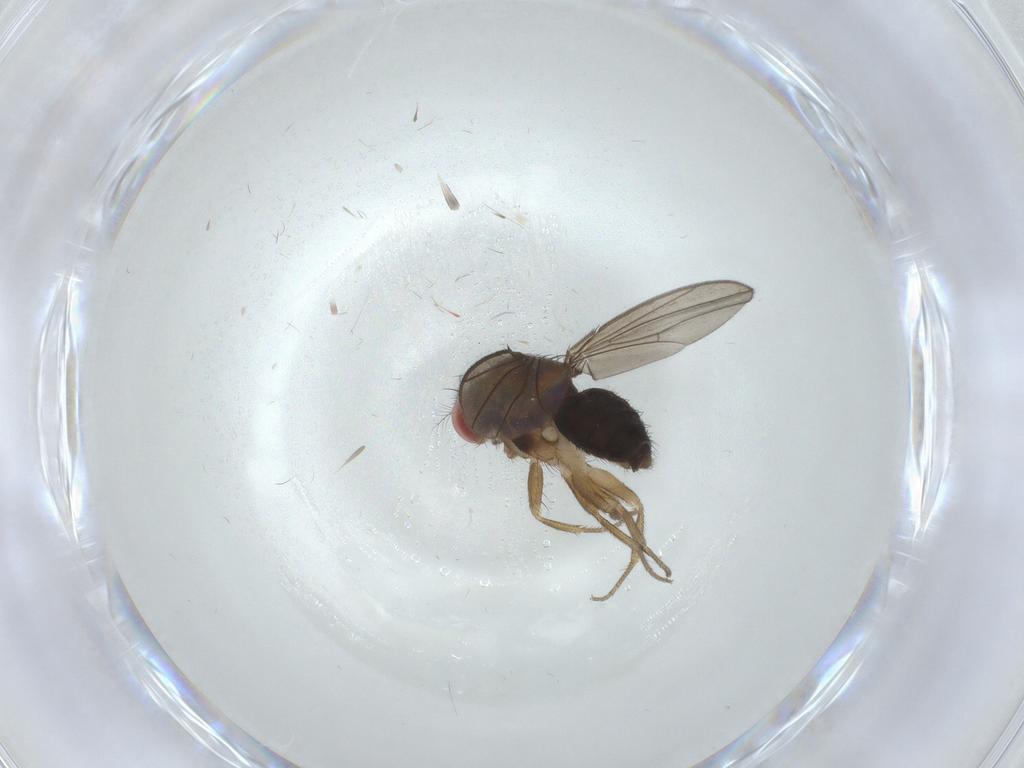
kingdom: Animalia
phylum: Arthropoda
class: Insecta
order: Diptera
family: Drosophilidae
